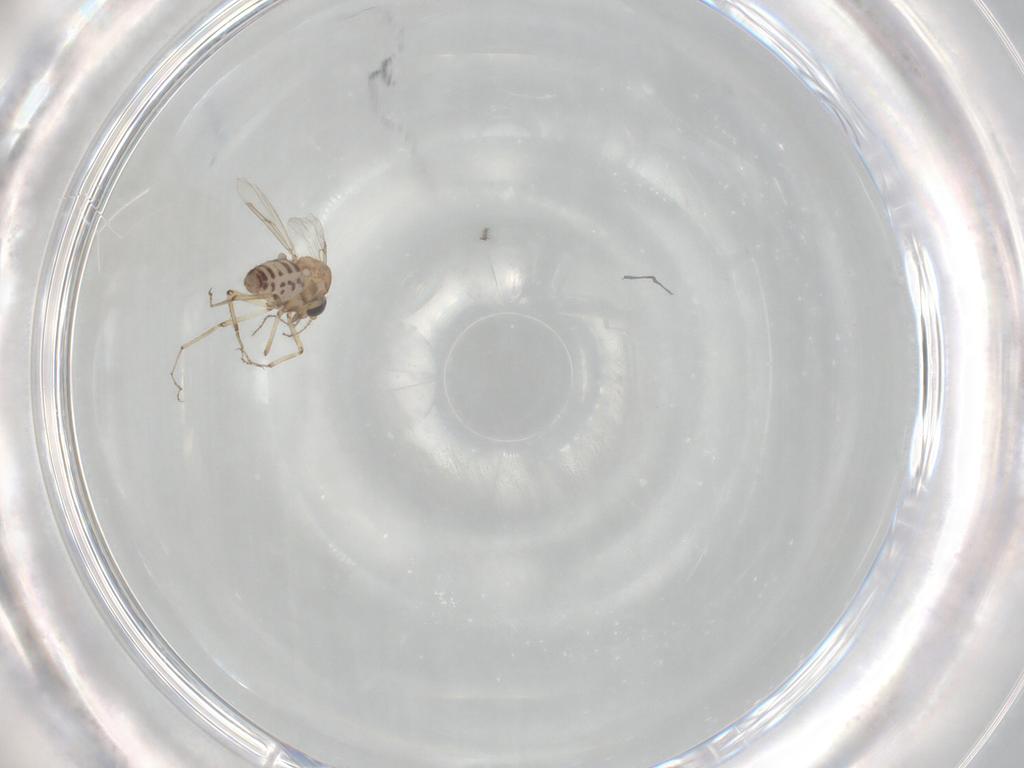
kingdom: Animalia
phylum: Arthropoda
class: Insecta
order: Diptera
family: Ceratopogonidae
